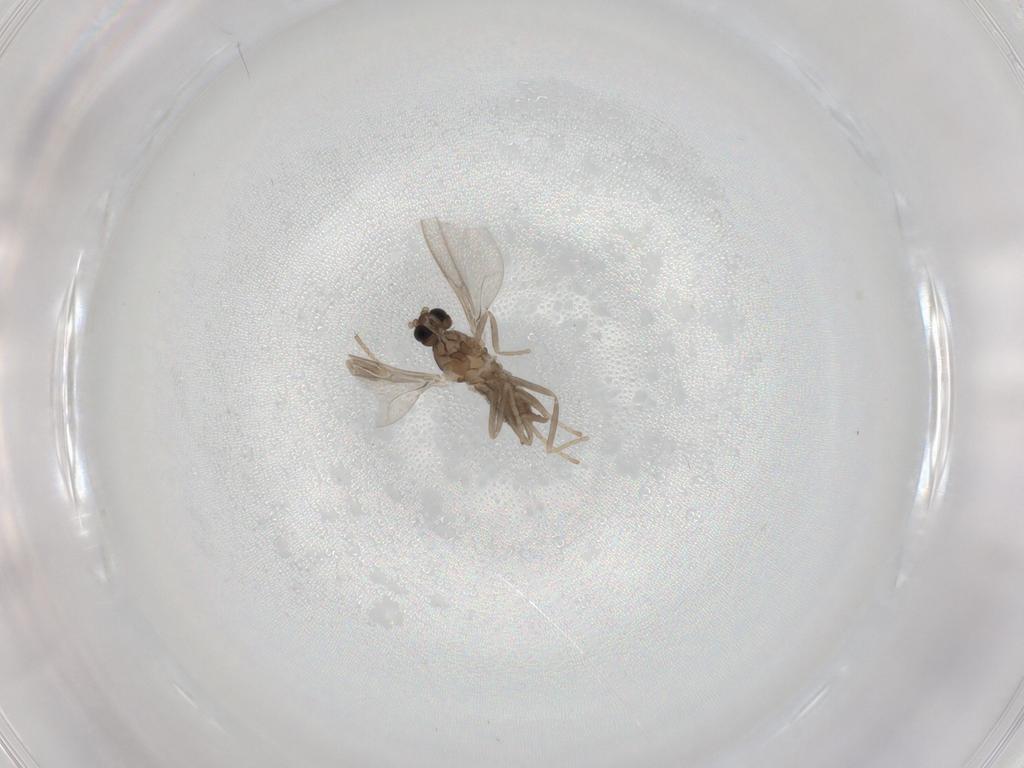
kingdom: Animalia
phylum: Arthropoda
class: Insecta
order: Diptera
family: Cecidomyiidae
